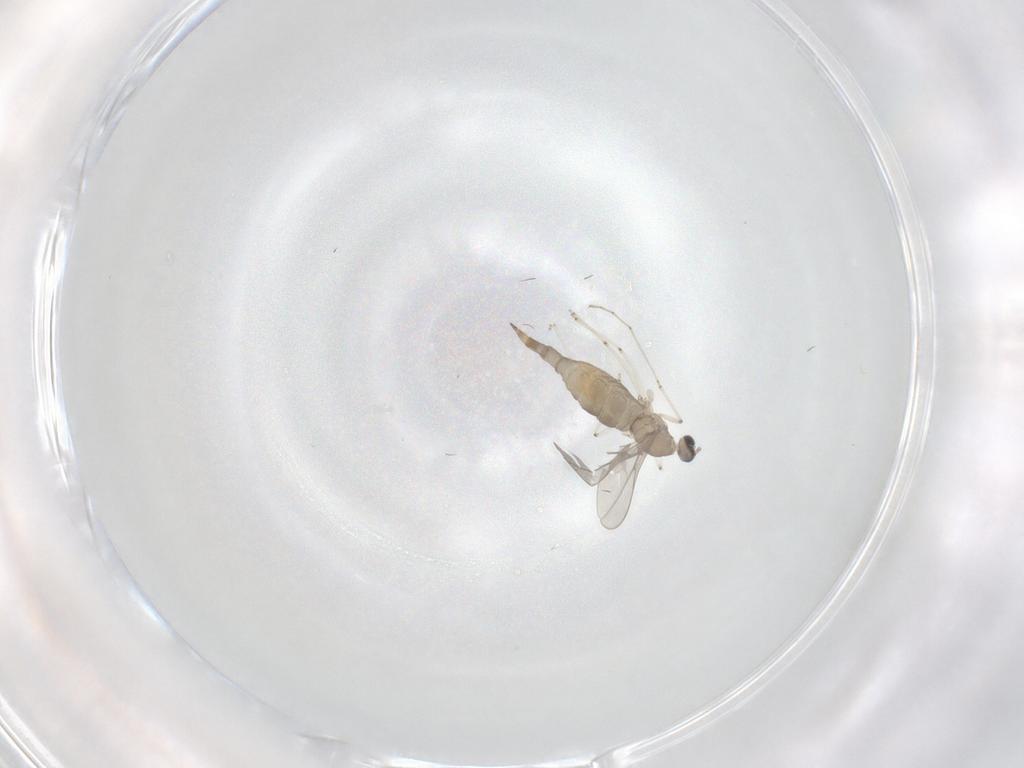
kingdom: Animalia
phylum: Arthropoda
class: Insecta
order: Diptera
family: Cecidomyiidae
